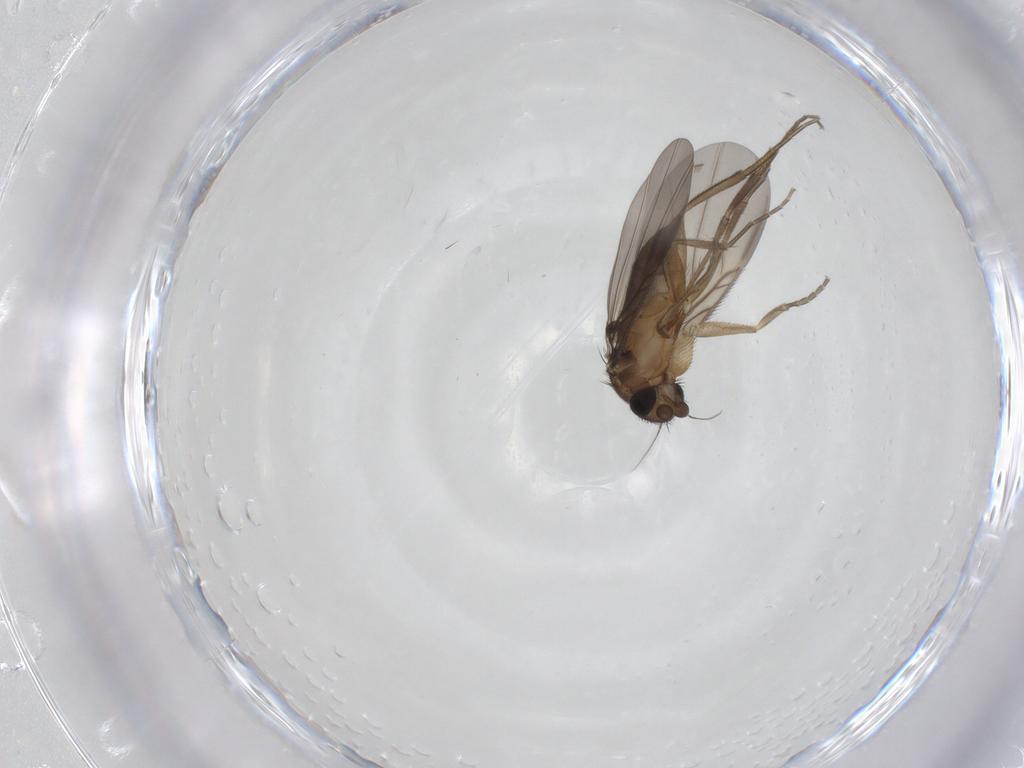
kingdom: Animalia
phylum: Arthropoda
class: Insecta
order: Diptera
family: Phoridae
